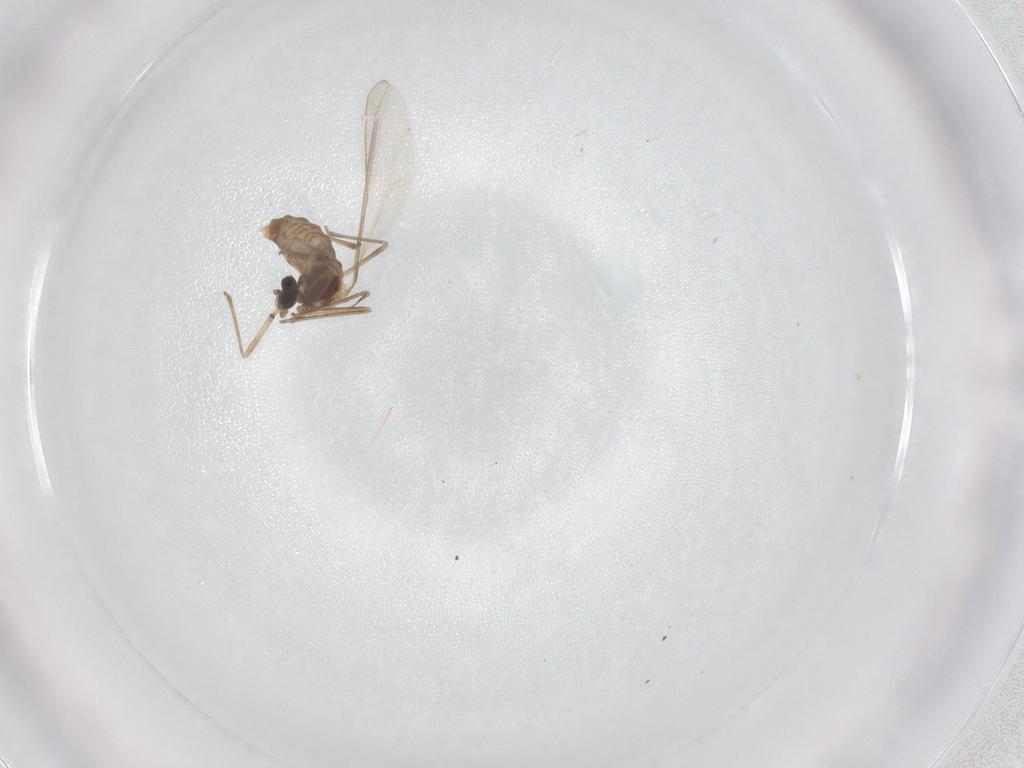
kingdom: Animalia
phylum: Arthropoda
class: Insecta
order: Diptera
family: Cecidomyiidae
